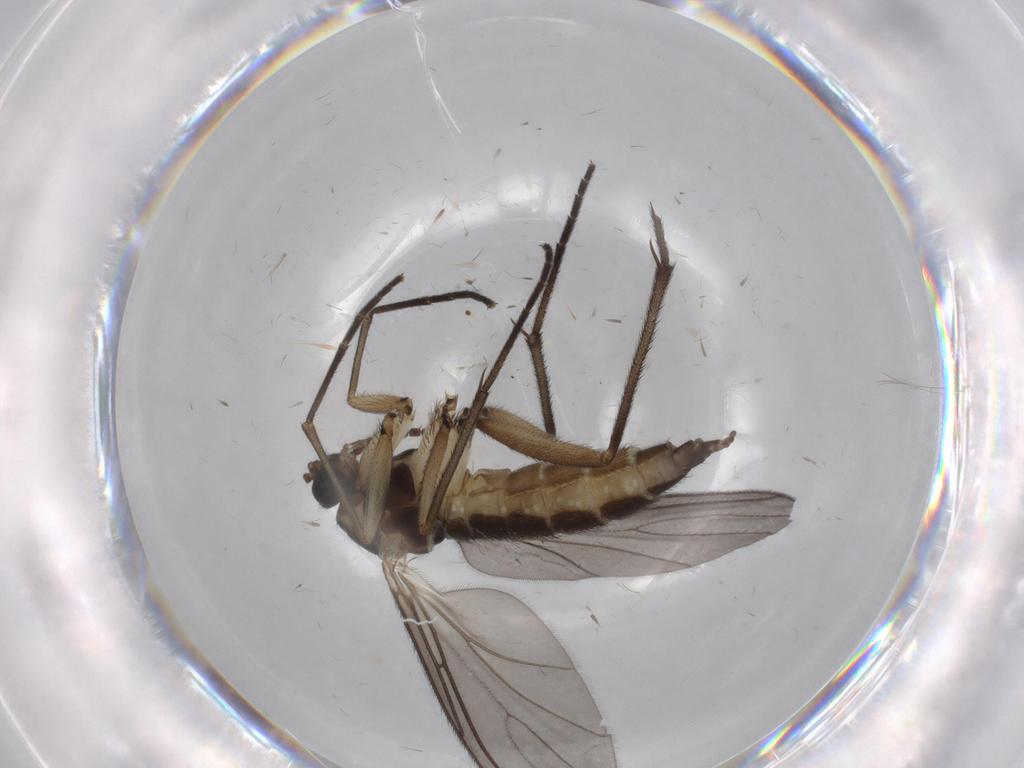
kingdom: Animalia
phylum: Arthropoda
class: Insecta
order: Diptera
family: Sciaridae
